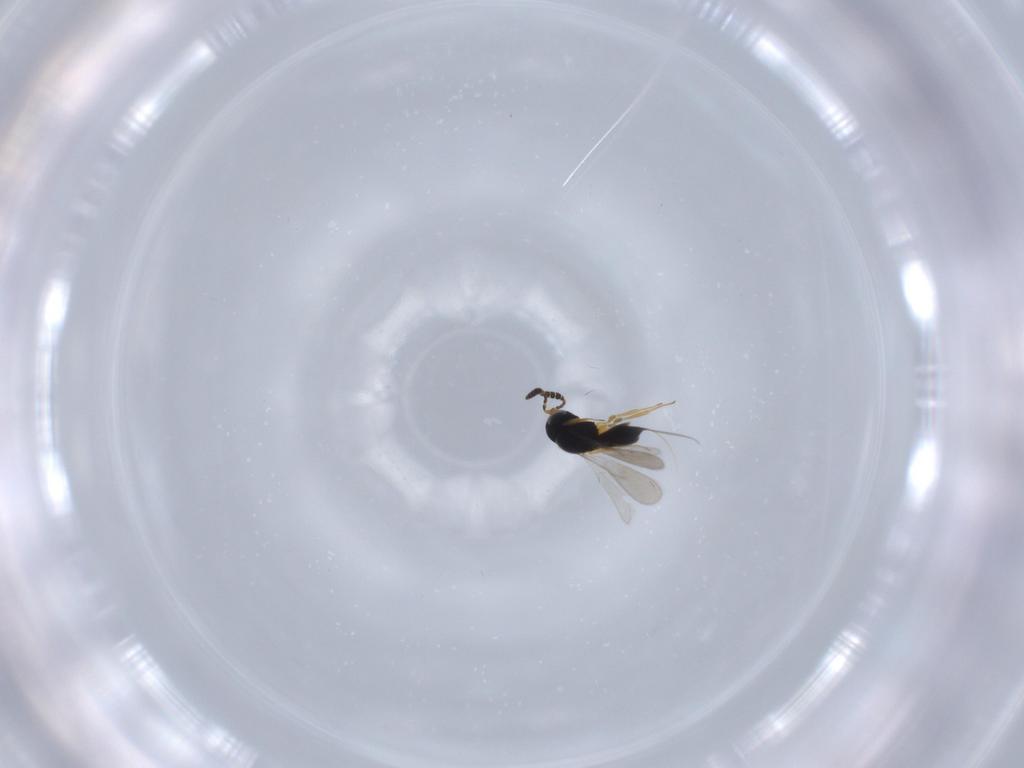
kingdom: Animalia
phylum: Arthropoda
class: Insecta
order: Hymenoptera
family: Scelionidae
